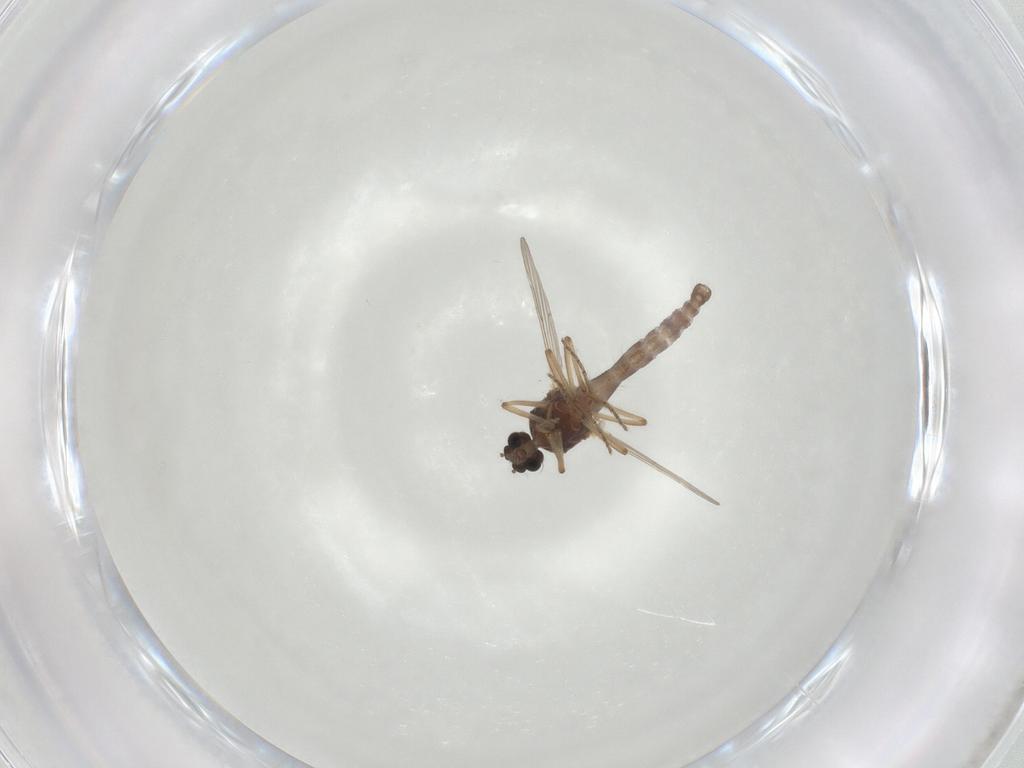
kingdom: Animalia
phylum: Arthropoda
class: Insecta
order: Diptera
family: Ceratopogonidae
